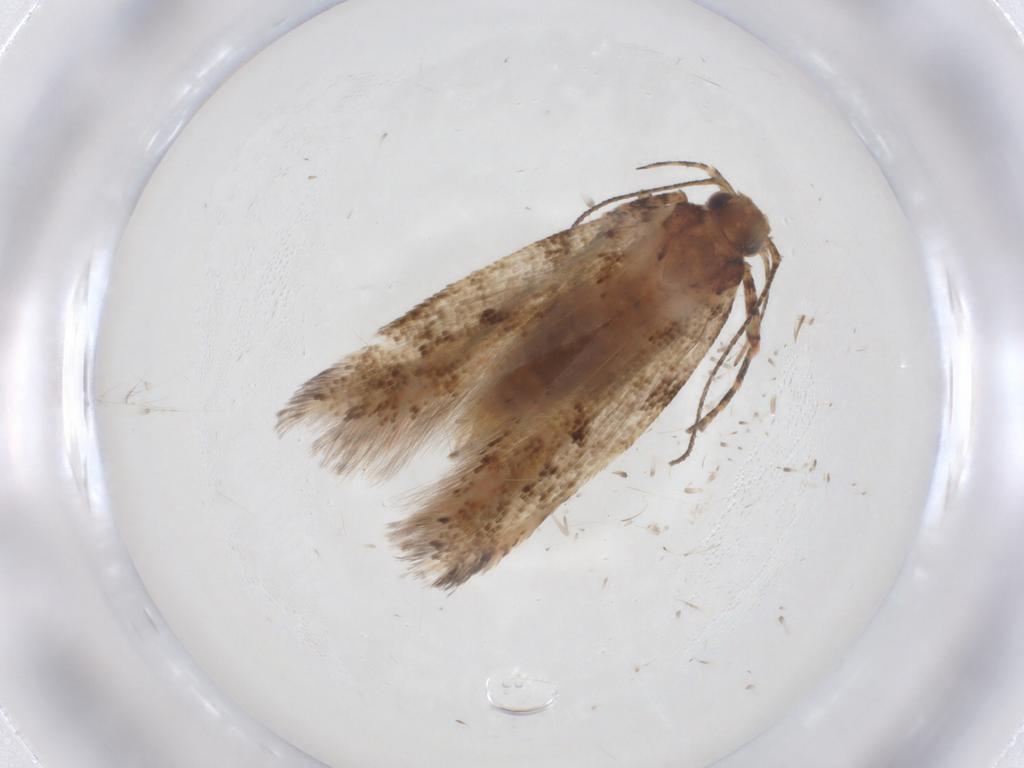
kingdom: Animalia
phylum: Arthropoda
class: Insecta
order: Lepidoptera
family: Gelechiidae
